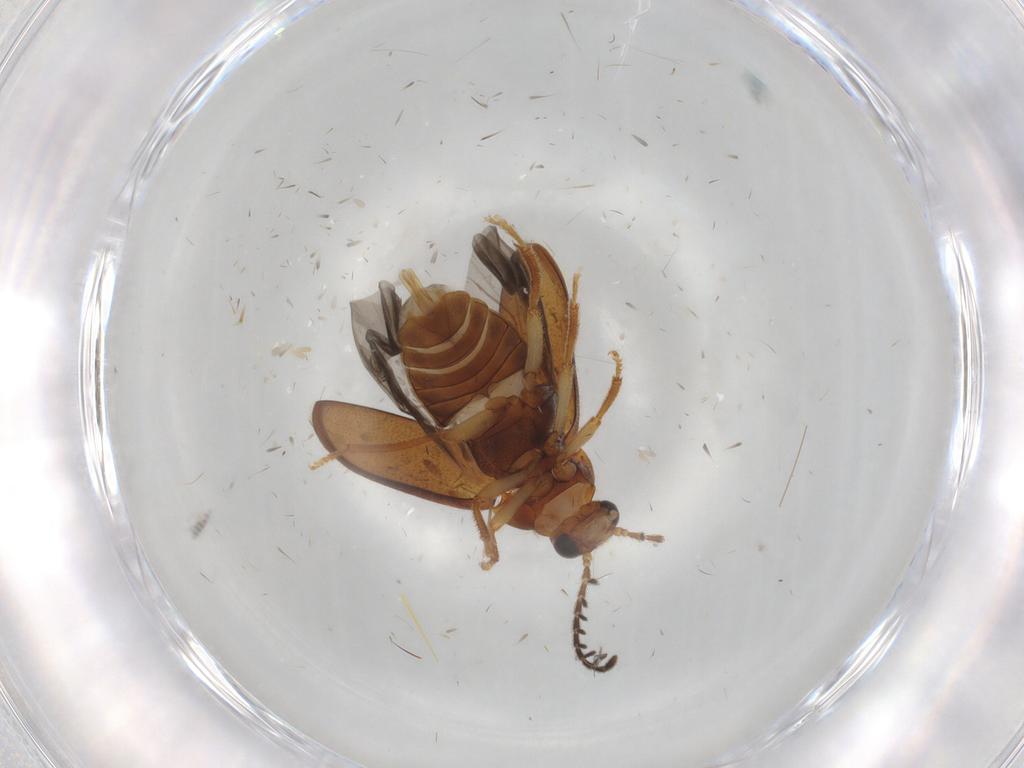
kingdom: Animalia
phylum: Arthropoda
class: Insecta
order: Coleoptera
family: Ptilodactylidae
